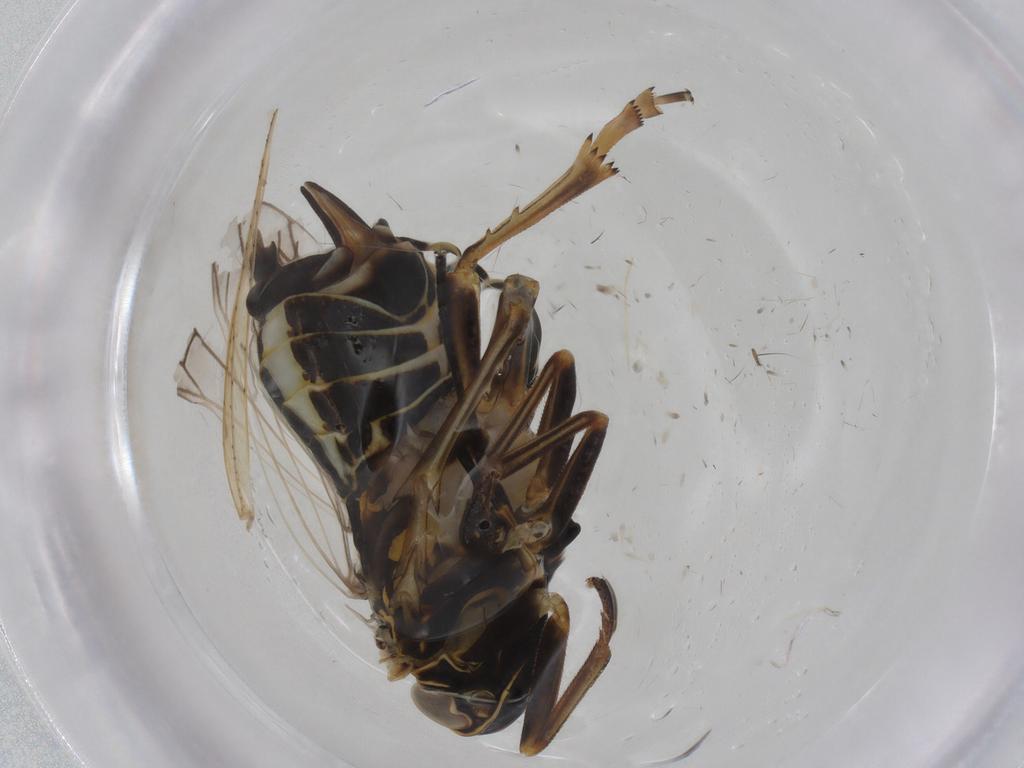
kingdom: Animalia
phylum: Arthropoda
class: Insecta
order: Hemiptera
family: Cixiidae
